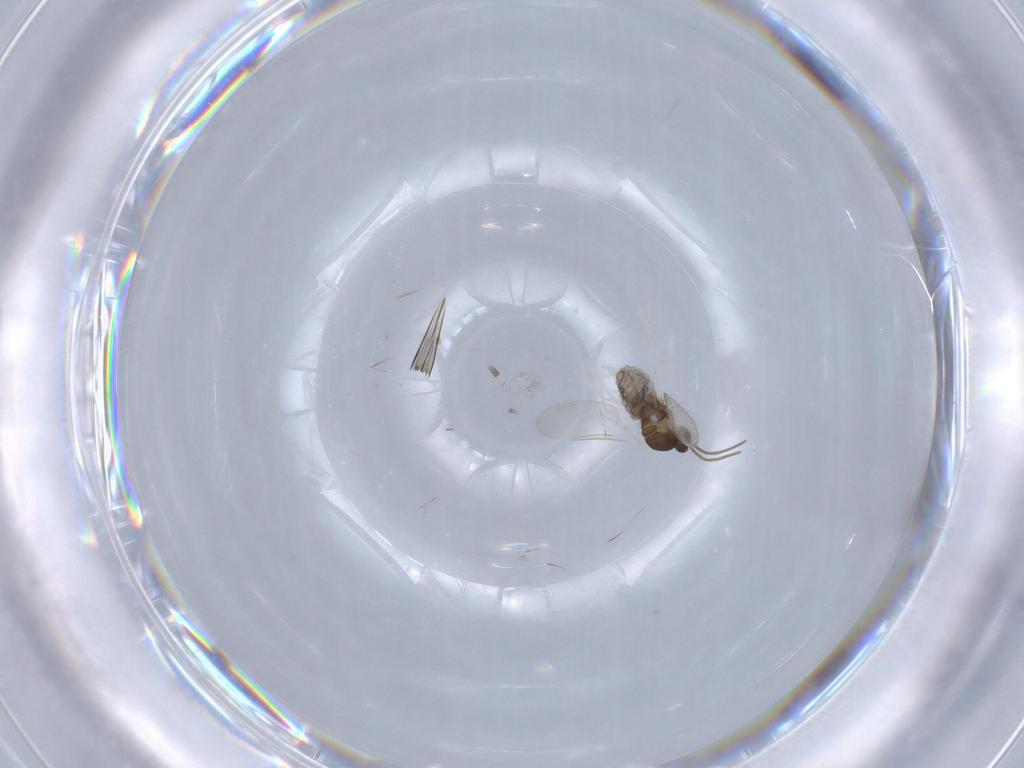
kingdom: Animalia
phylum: Arthropoda
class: Insecta
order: Diptera
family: Ceratopogonidae
